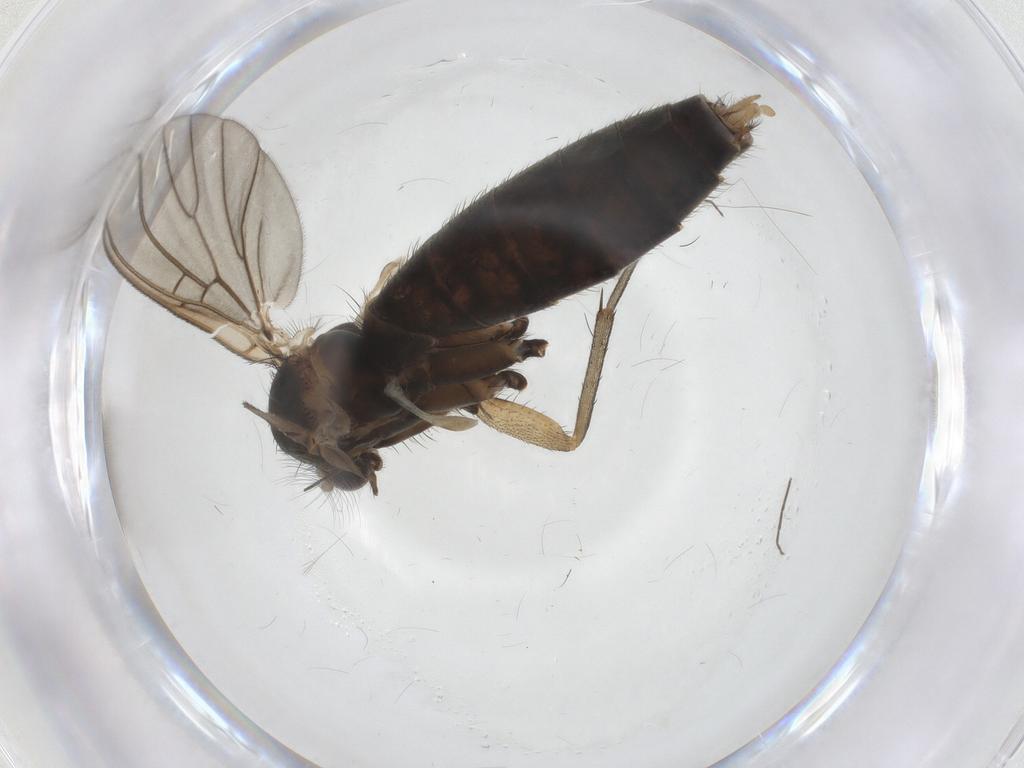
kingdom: Animalia
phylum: Arthropoda
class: Insecta
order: Diptera
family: Mycetophilidae
